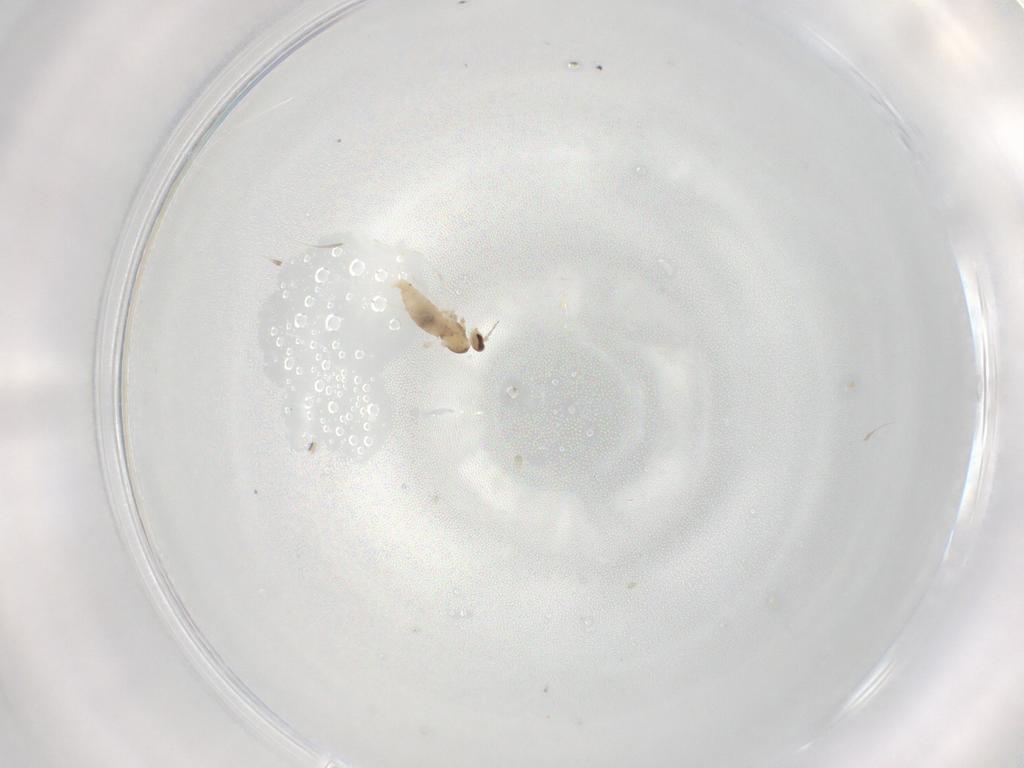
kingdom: Animalia
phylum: Arthropoda
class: Insecta
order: Diptera
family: Cecidomyiidae
